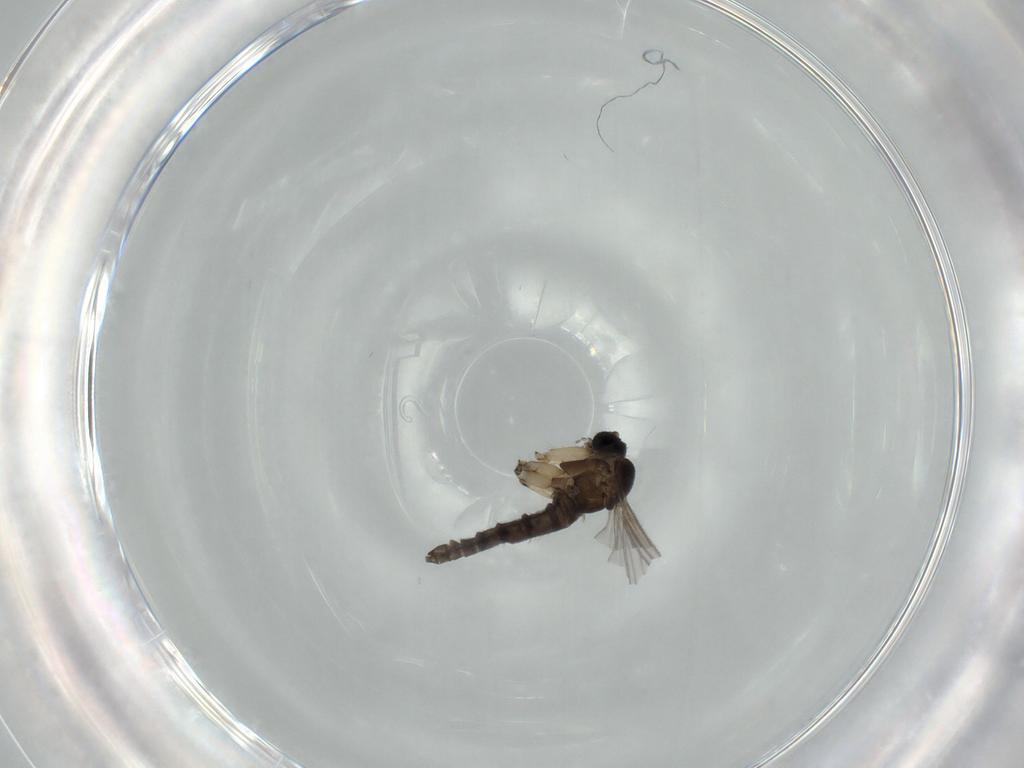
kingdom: Animalia
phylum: Arthropoda
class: Insecta
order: Diptera
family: Sciaridae
